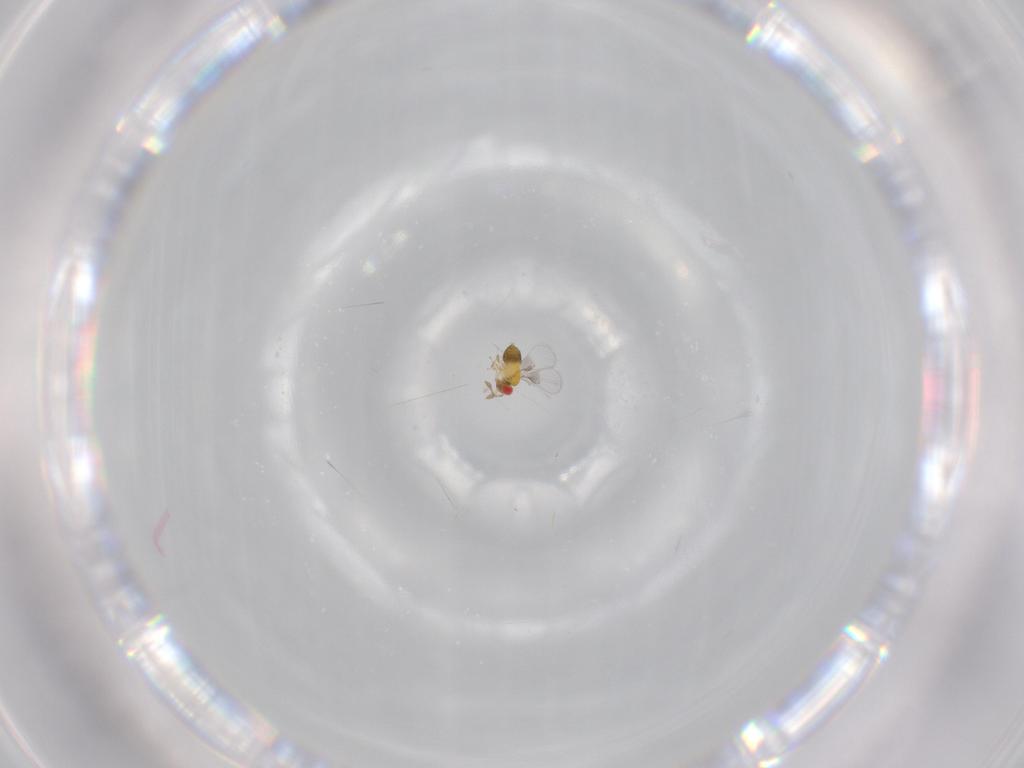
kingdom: Animalia
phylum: Arthropoda
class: Insecta
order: Hymenoptera
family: Trichogrammatidae
